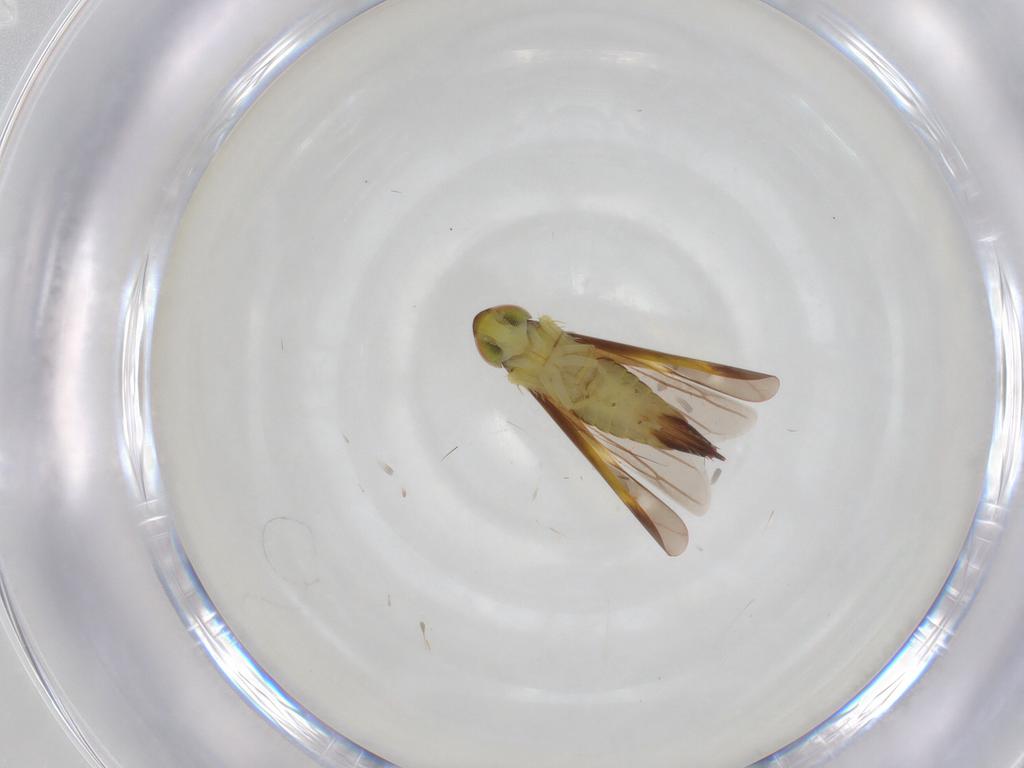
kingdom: Animalia
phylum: Arthropoda
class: Insecta
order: Hemiptera
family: Cicadellidae
